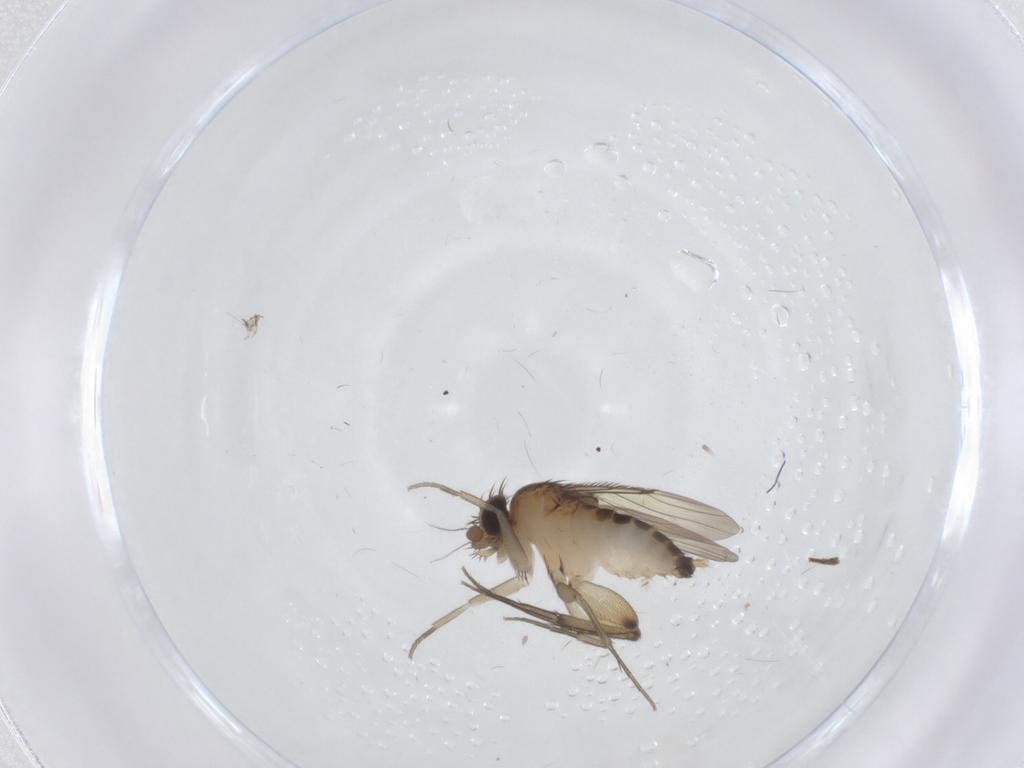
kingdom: Animalia
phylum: Arthropoda
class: Insecta
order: Diptera
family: Phoridae
